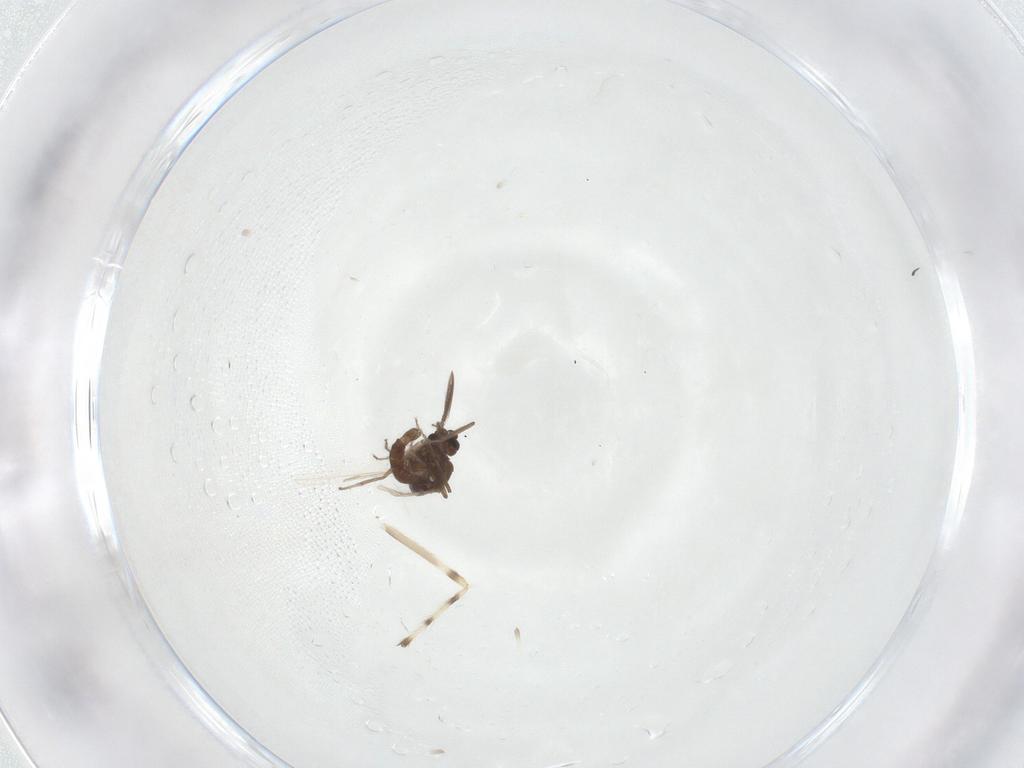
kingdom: Animalia
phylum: Arthropoda
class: Insecta
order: Diptera
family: Ceratopogonidae
